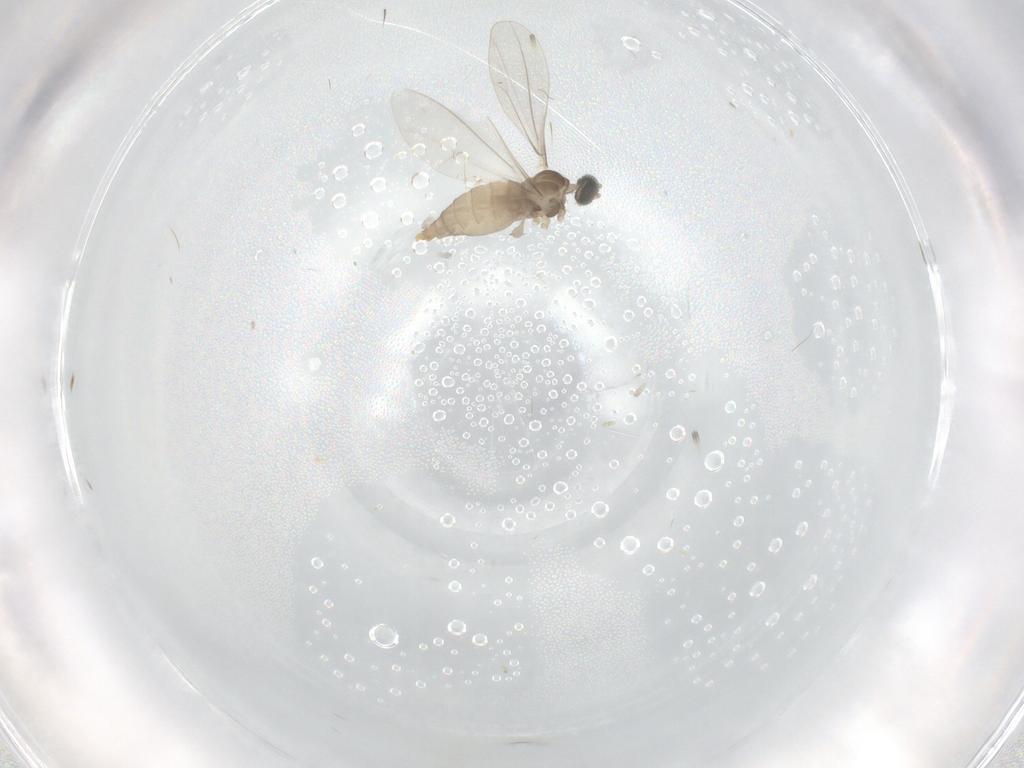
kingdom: Animalia
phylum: Arthropoda
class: Insecta
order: Diptera
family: Cecidomyiidae
